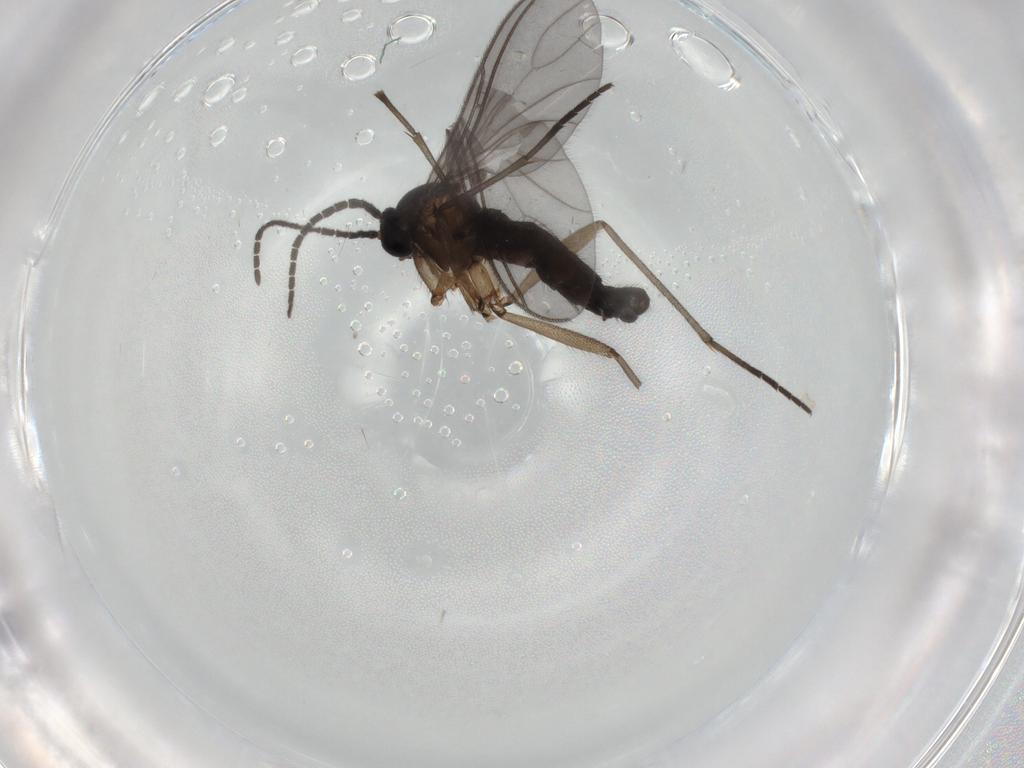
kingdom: Animalia
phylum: Arthropoda
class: Insecta
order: Diptera
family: Sciaridae
